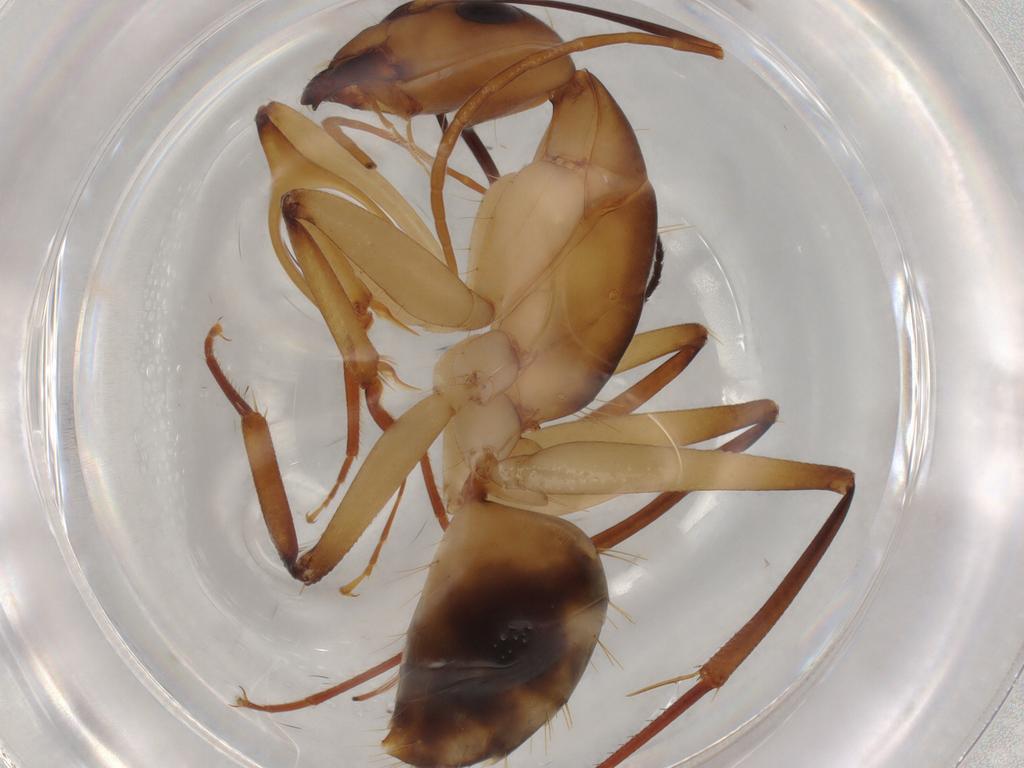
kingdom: Animalia
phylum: Arthropoda
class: Insecta
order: Hymenoptera
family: Formicidae
